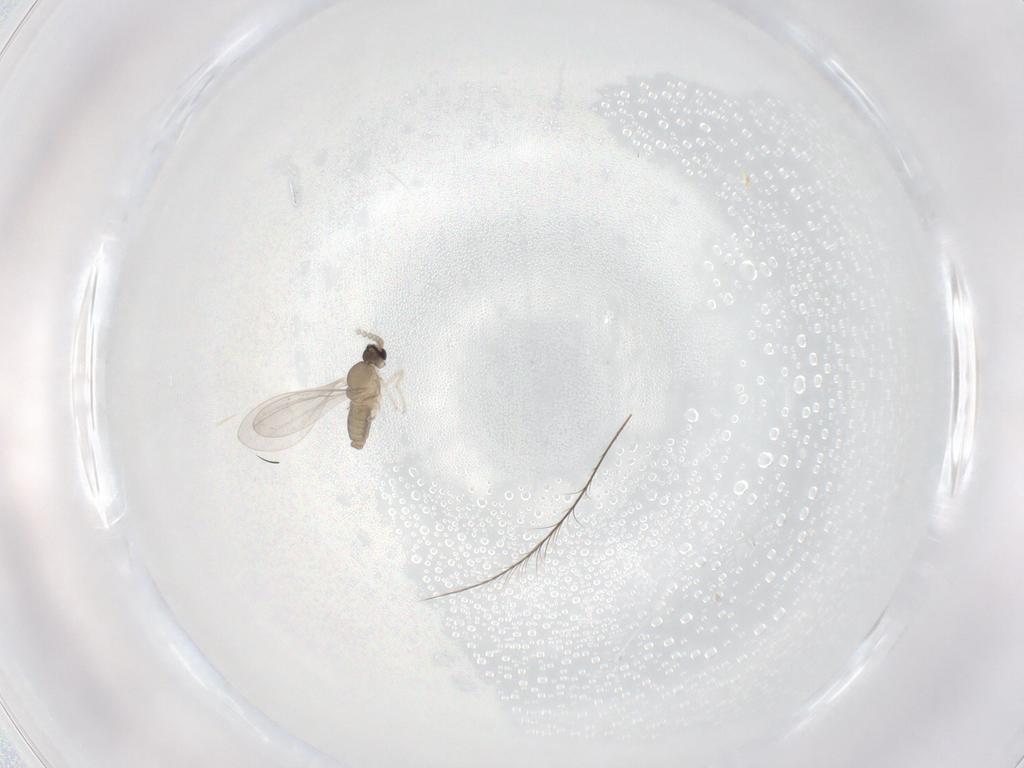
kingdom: Animalia
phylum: Arthropoda
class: Insecta
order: Diptera
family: Cecidomyiidae
